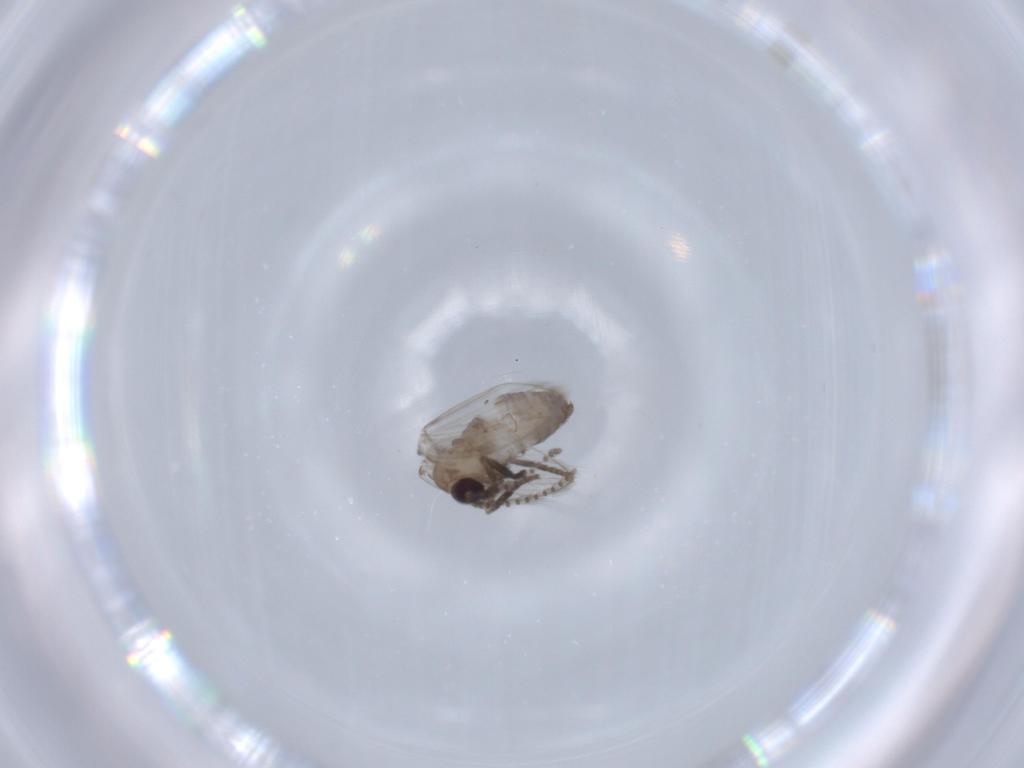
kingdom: Animalia
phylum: Arthropoda
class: Insecta
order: Diptera
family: Psychodidae
